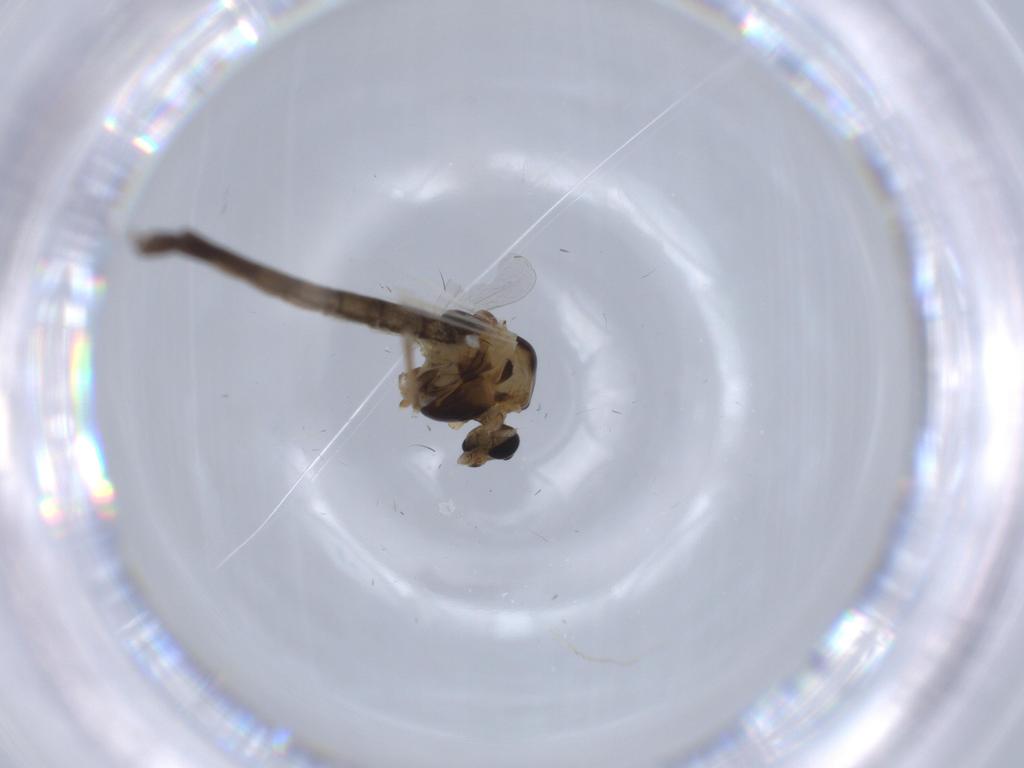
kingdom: Animalia
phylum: Arthropoda
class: Insecta
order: Diptera
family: Chironomidae
